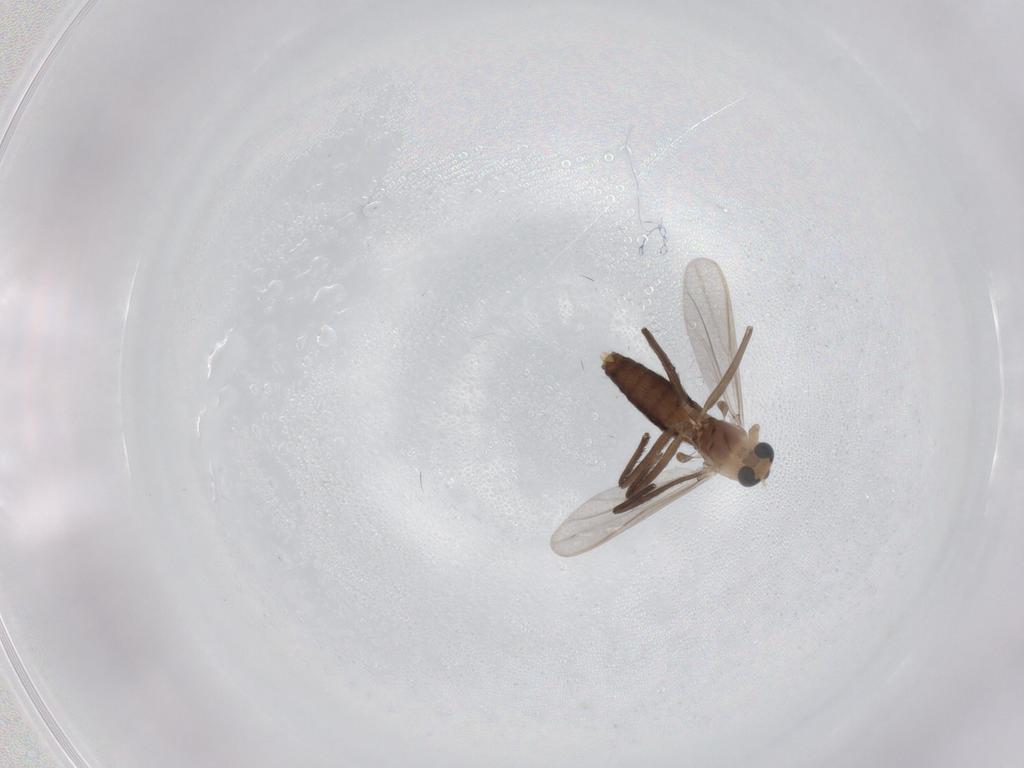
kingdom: Animalia
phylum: Arthropoda
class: Insecta
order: Diptera
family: Chironomidae
